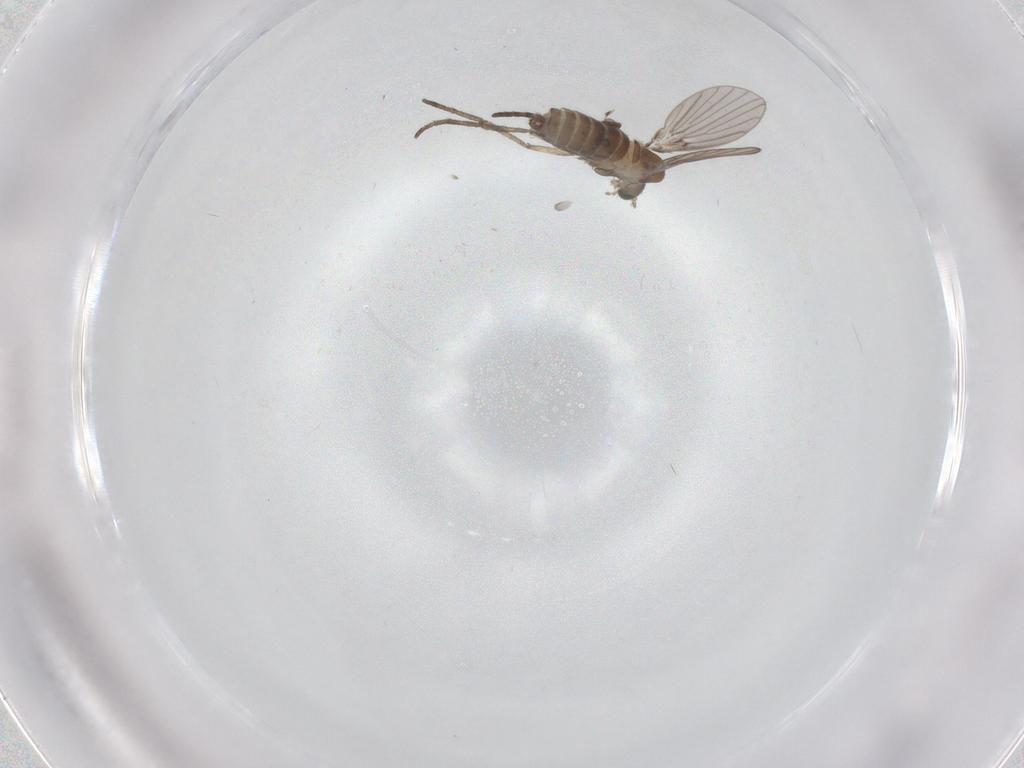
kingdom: Animalia
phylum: Arthropoda
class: Insecta
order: Diptera
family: Psychodidae
